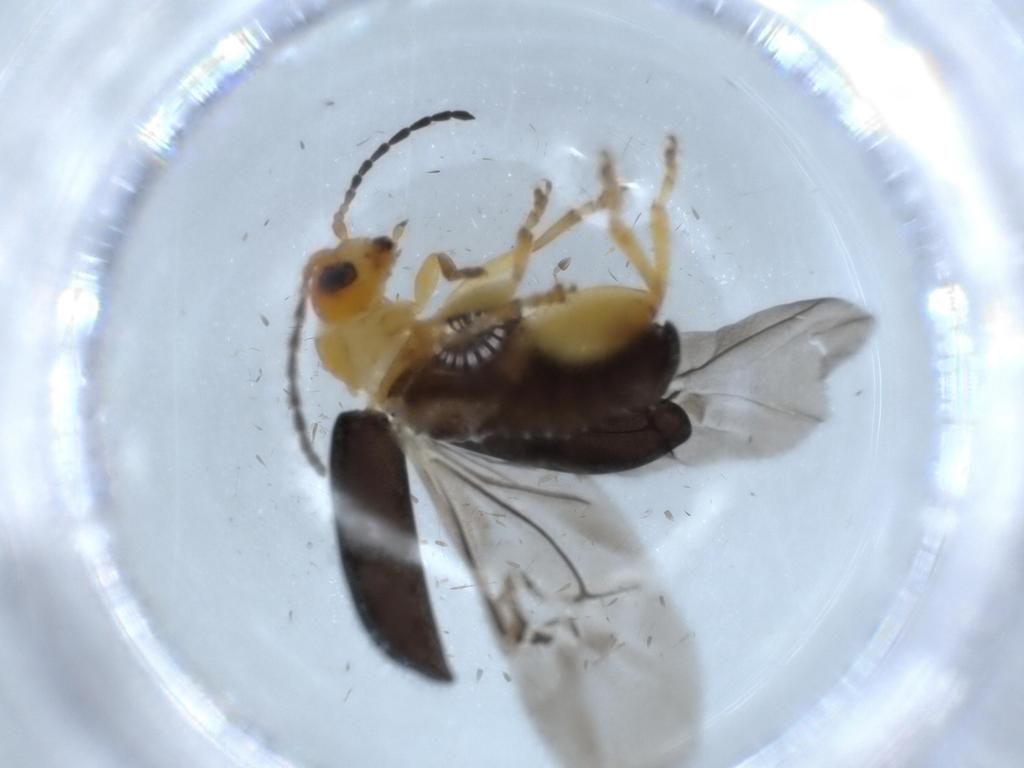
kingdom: Animalia
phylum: Arthropoda
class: Insecta
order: Coleoptera
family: Chrysomelidae
